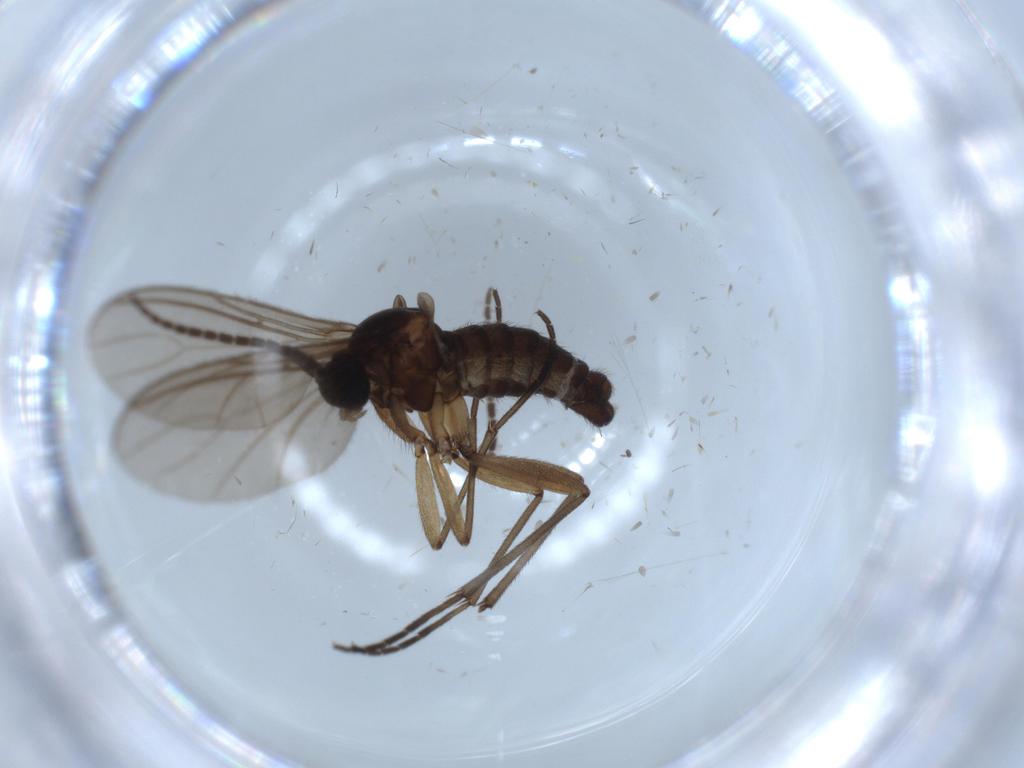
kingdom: Animalia
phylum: Arthropoda
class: Insecta
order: Diptera
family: Sciaridae
